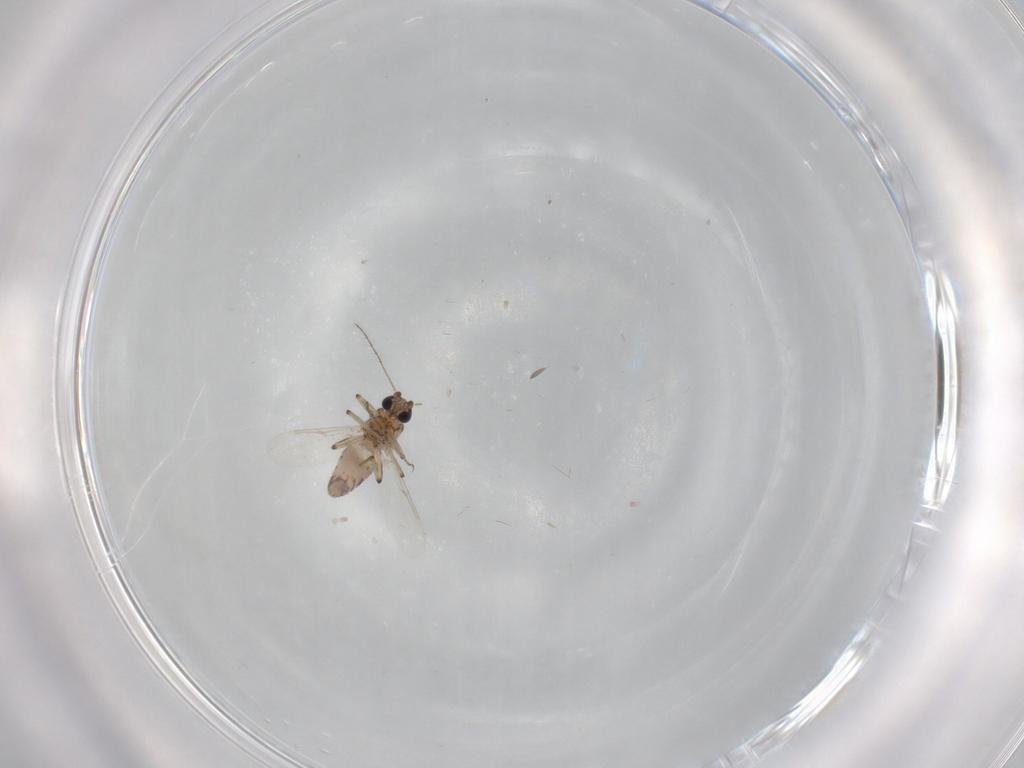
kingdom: Animalia
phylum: Arthropoda
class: Insecta
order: Diptera
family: Ceratopogonidae
